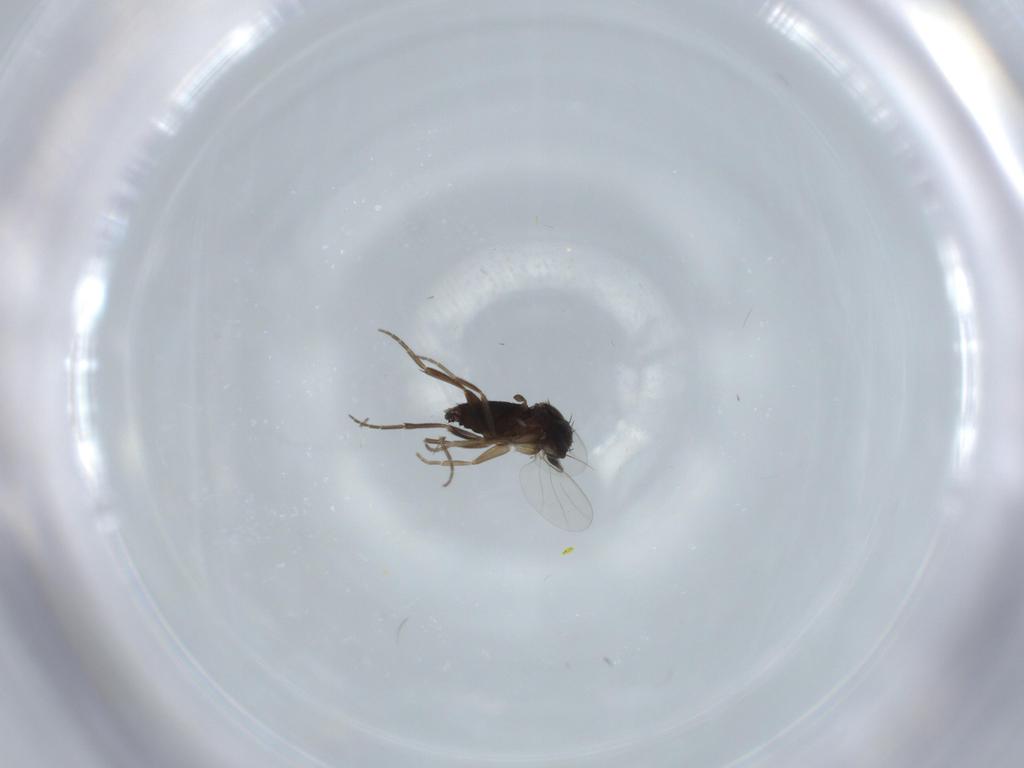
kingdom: Animalia
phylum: Arthropoda
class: Insecta
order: Diptera
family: Phoridae
